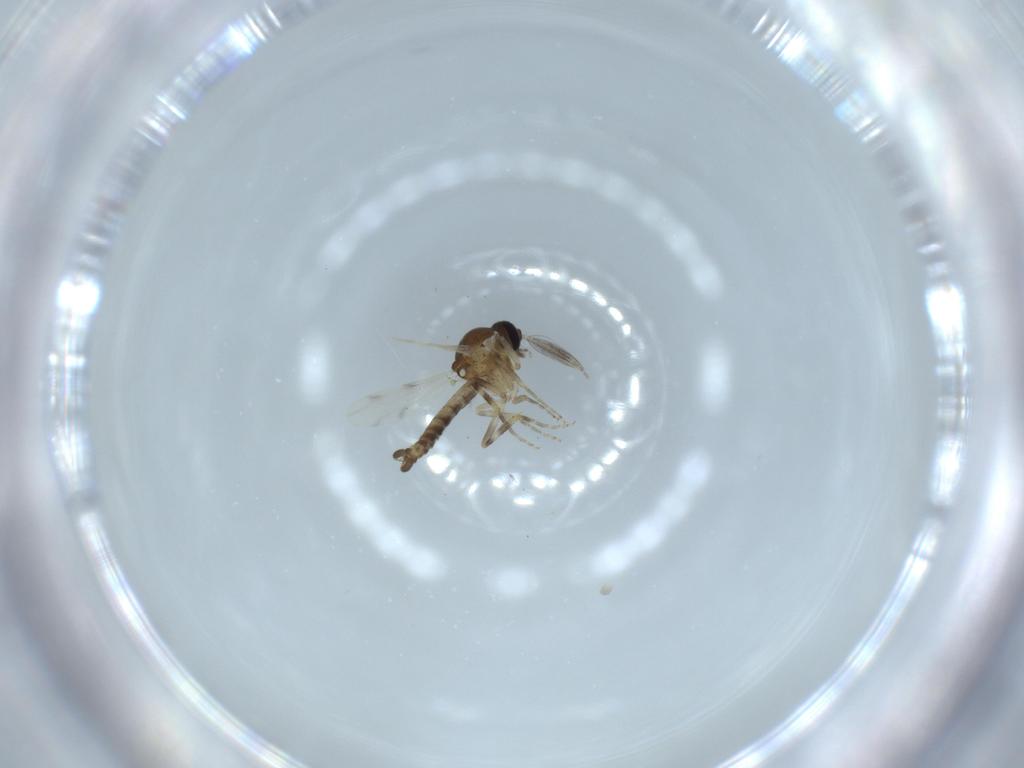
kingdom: Animalia
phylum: Arthropoda
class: Insecta
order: Diptera
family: Ceratopogonidae
